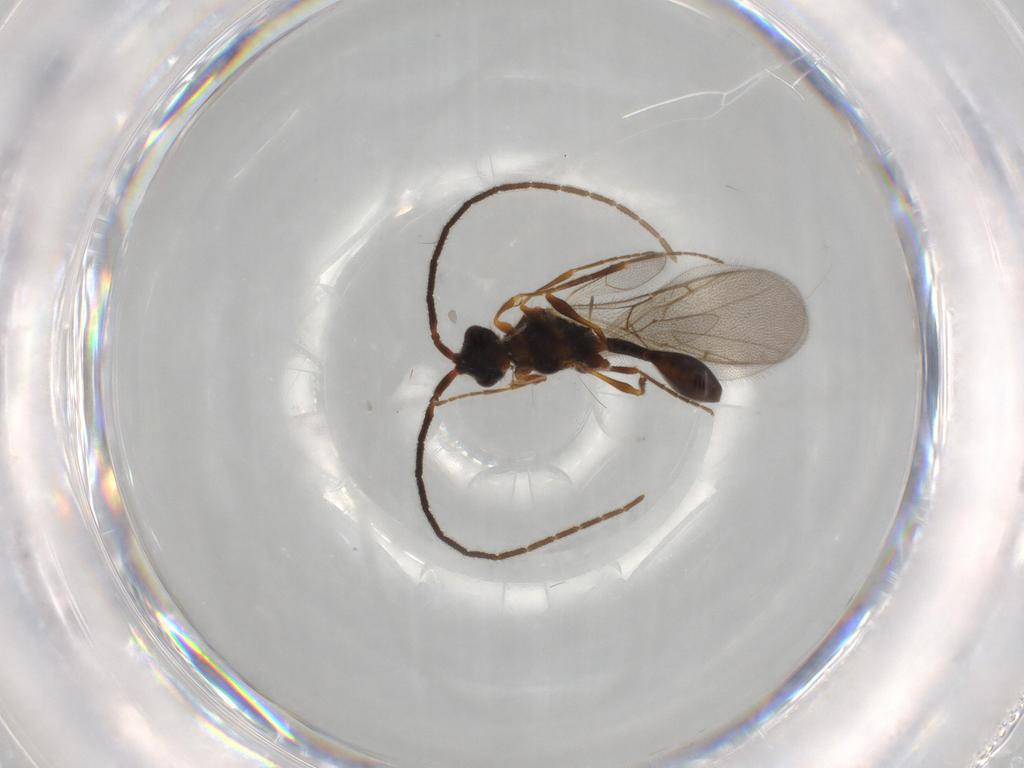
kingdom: Animalia
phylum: Arthropoda
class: Insecta
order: Hymenoptera
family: Diapriidae
